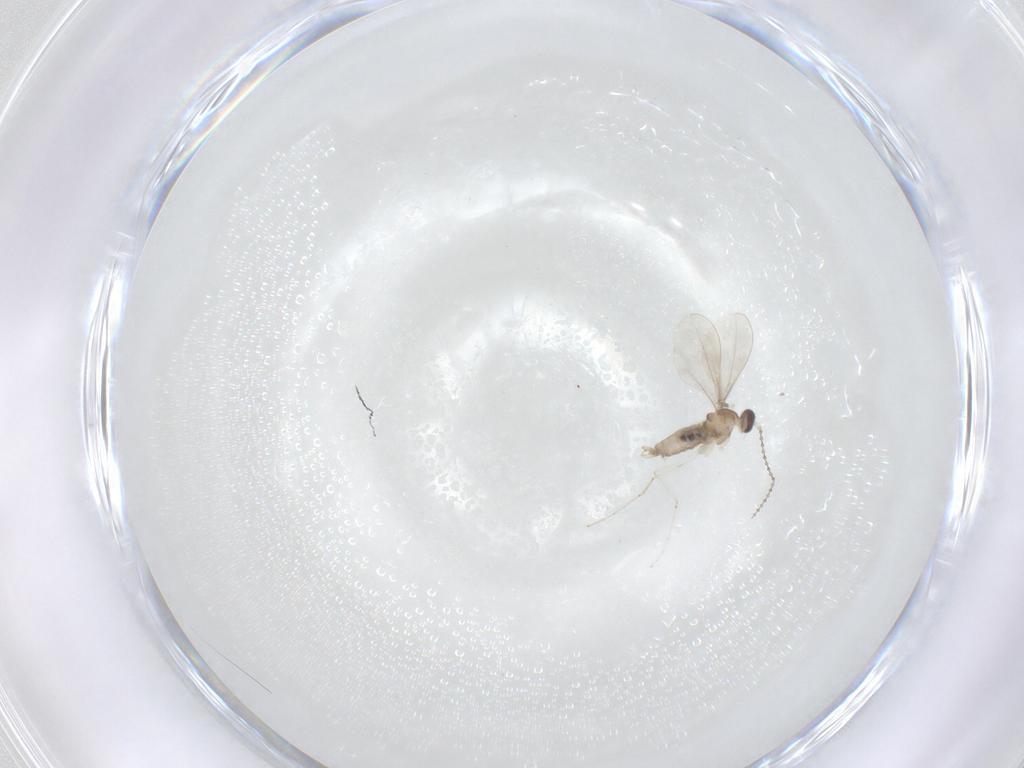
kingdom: Animalia
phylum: Arthropoda
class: Insecta
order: Diptera
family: Cecidomyiidae
